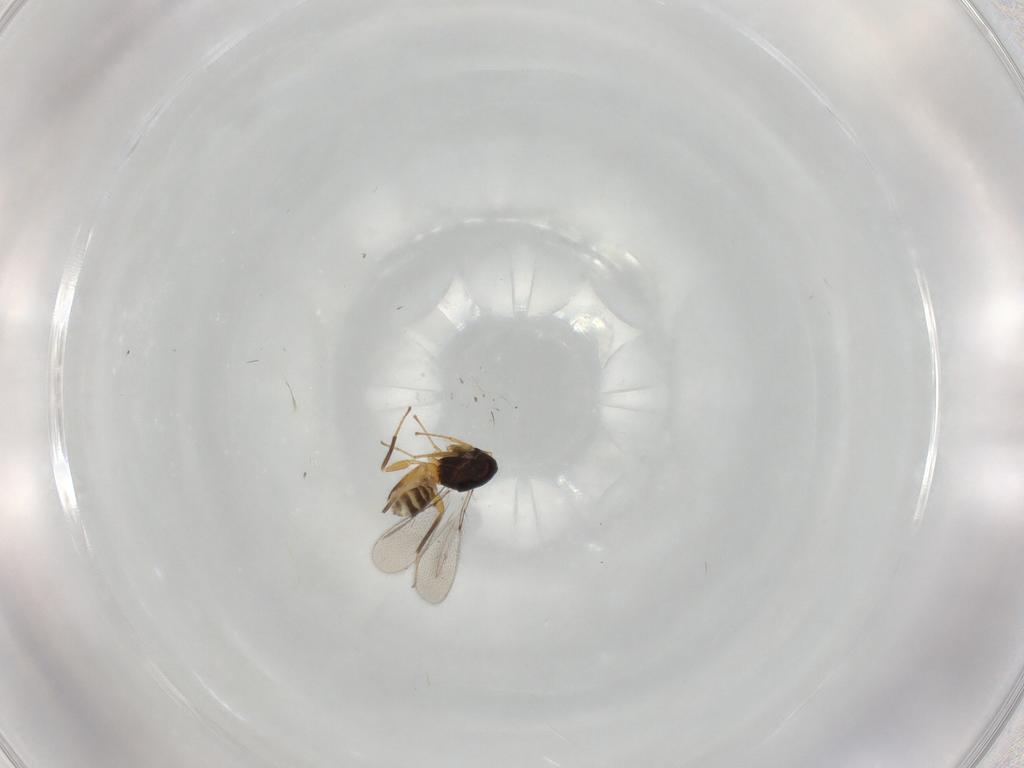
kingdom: Animalia
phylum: Arthropoda
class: Insecta
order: Hymenoptera
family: Mymaridae
